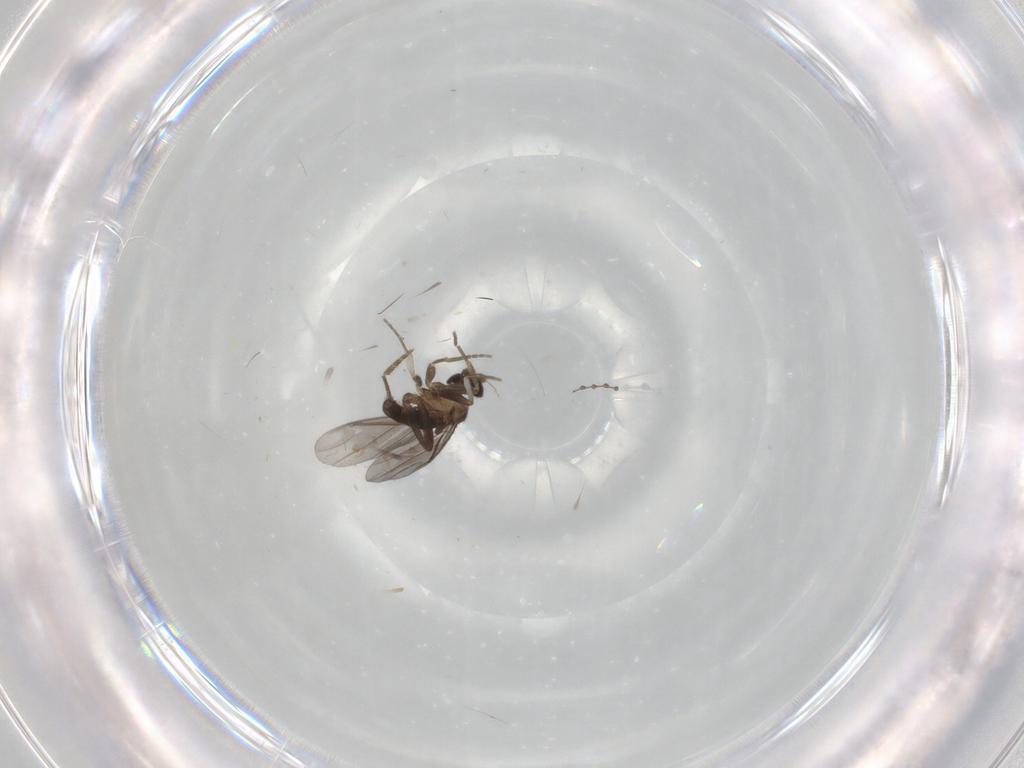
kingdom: Animalia
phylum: Arthropoda
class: Insecta
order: Diptera
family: Phoridae
